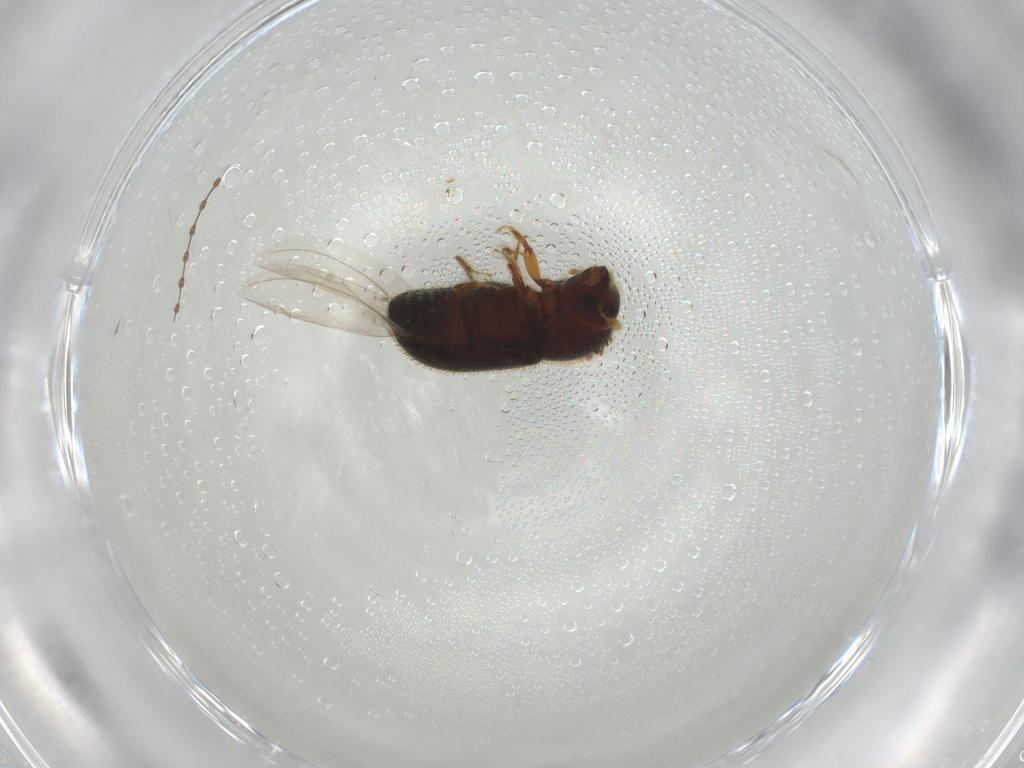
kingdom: Animalia
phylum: Arthropoda
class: Insecta
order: Coleoptera
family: Curculionidae
